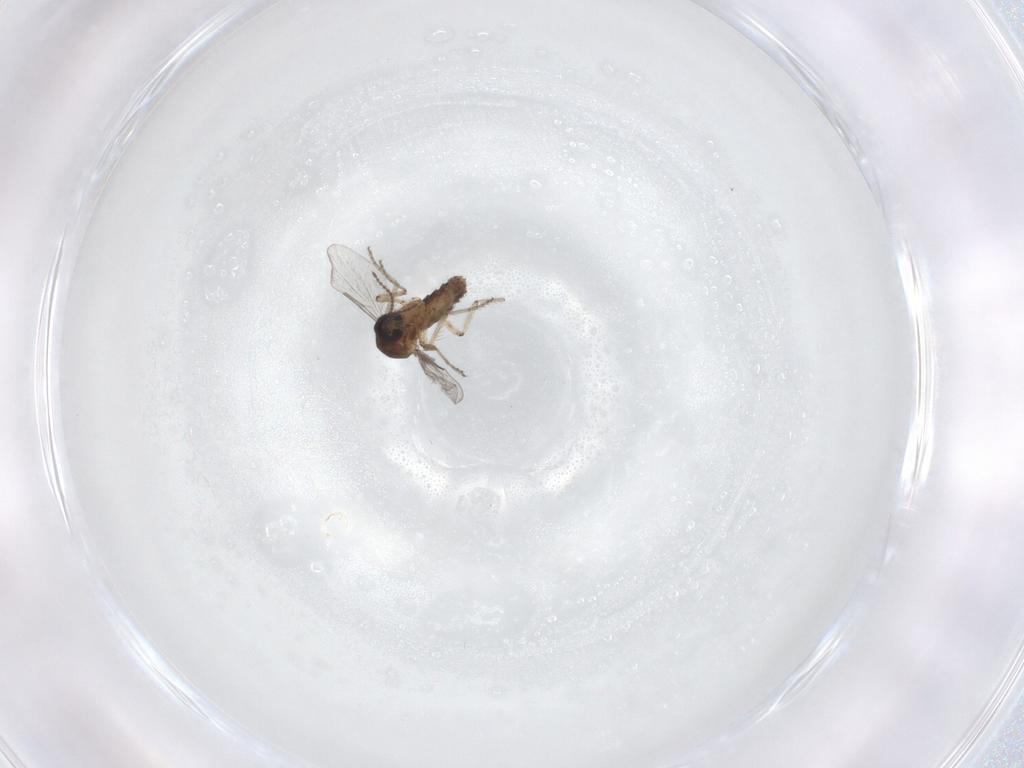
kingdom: Animalia
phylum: Arthropoda
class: Insecta
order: Diptera
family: Ceratopogonidae
